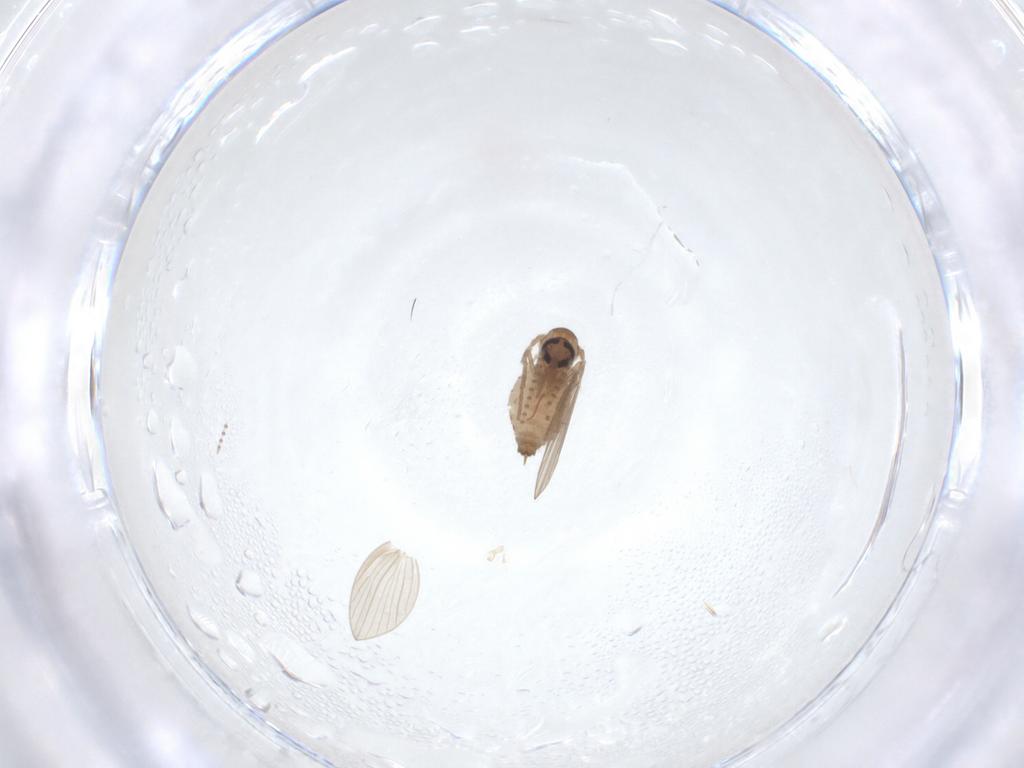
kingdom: Animalia
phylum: Arthropoda
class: Insecta
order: Diptera
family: Psychodidae
